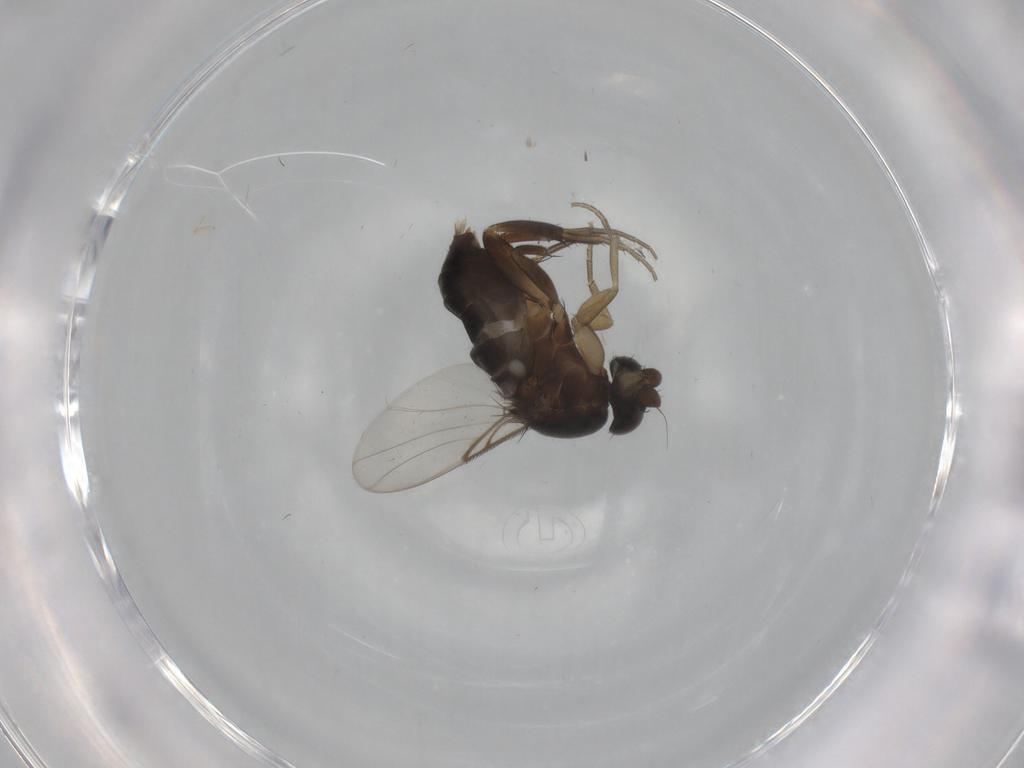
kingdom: Animalia
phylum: Arthropoda
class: Insecta
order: Diptera
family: Phoridae
